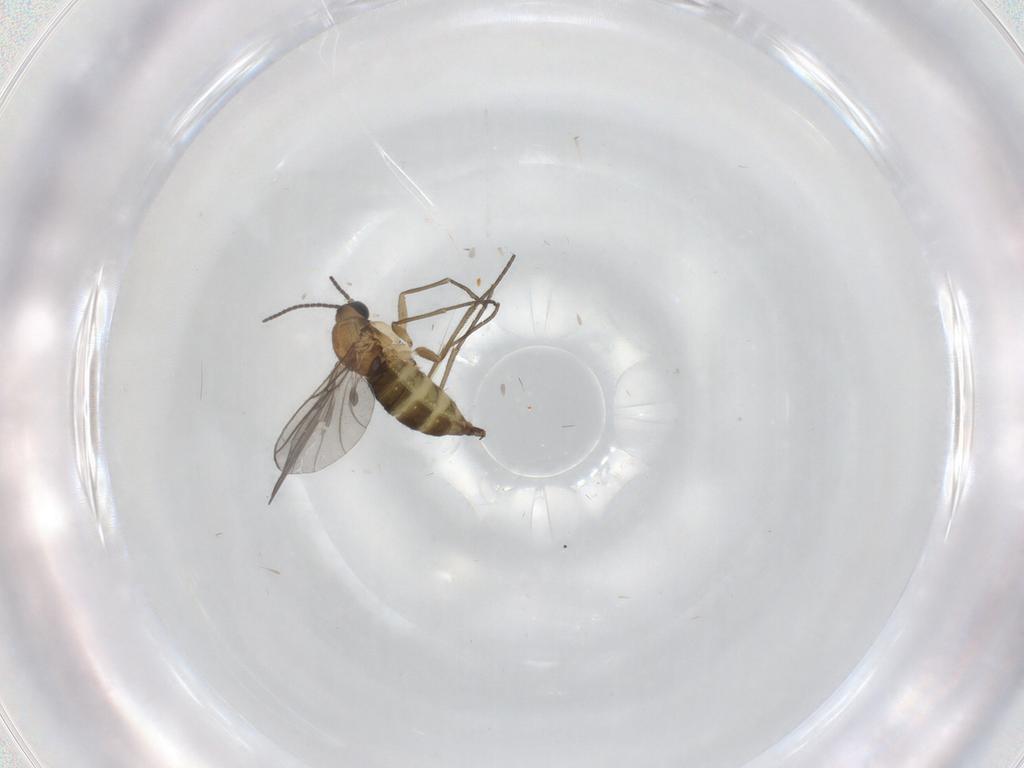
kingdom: Animalia
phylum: Arthropoda
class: Insecta
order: Diptera
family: Sciaridae
